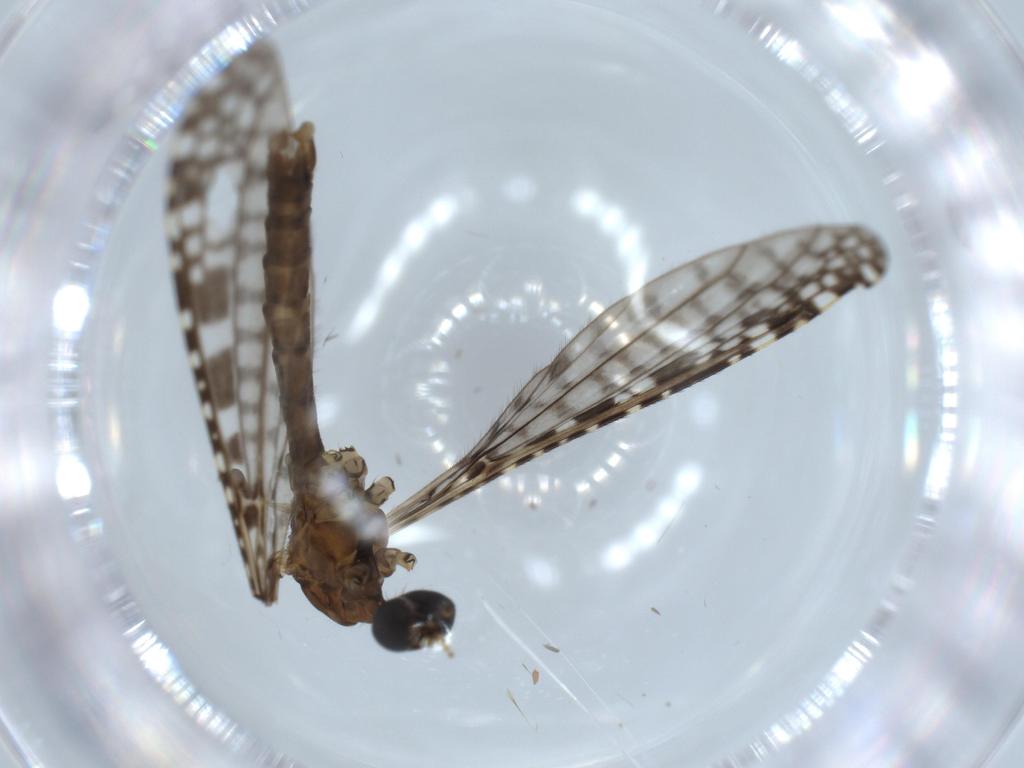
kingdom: Animalia
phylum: Arthropoda
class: Insecta
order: Diptera
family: Limoniidae
